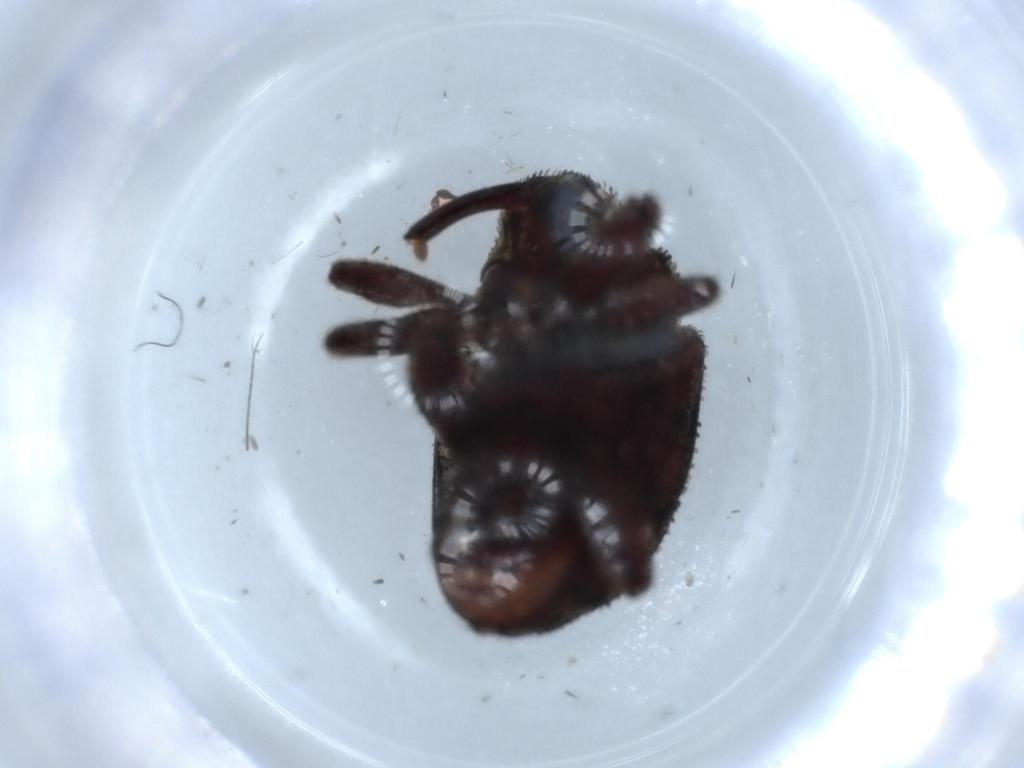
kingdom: Animalia
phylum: Arthropoda
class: Insecta
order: Coleoptera
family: Curculionidae
